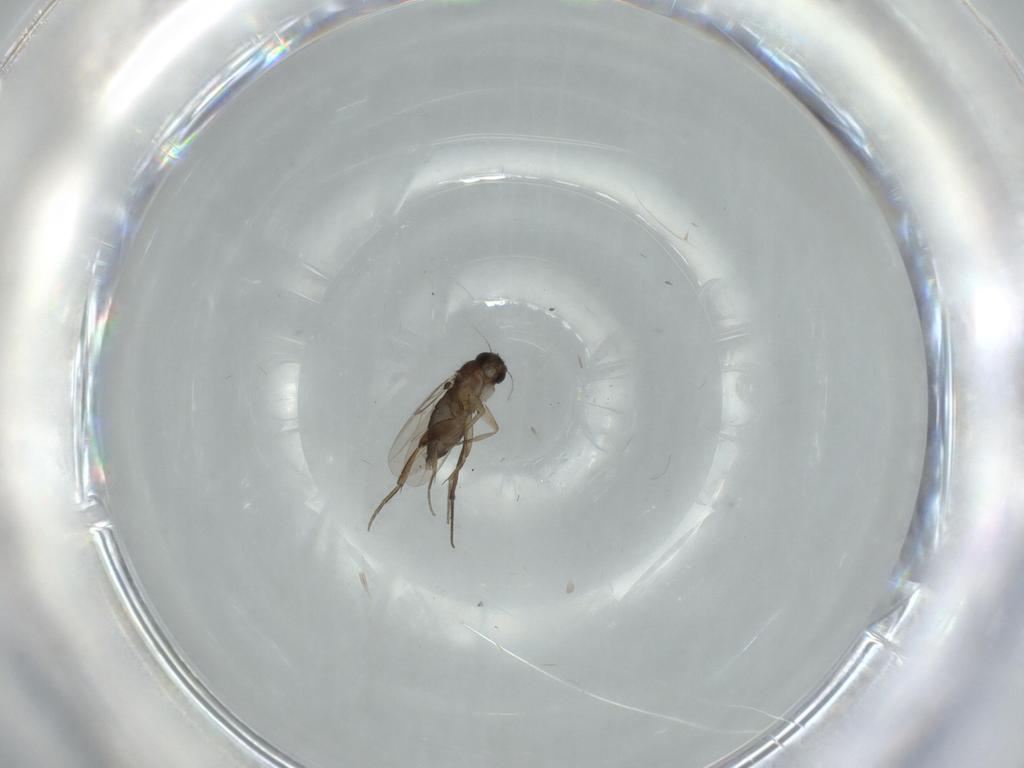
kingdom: Animalia
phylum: Arthropoda
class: Insecta
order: Diptera
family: Phoridae
